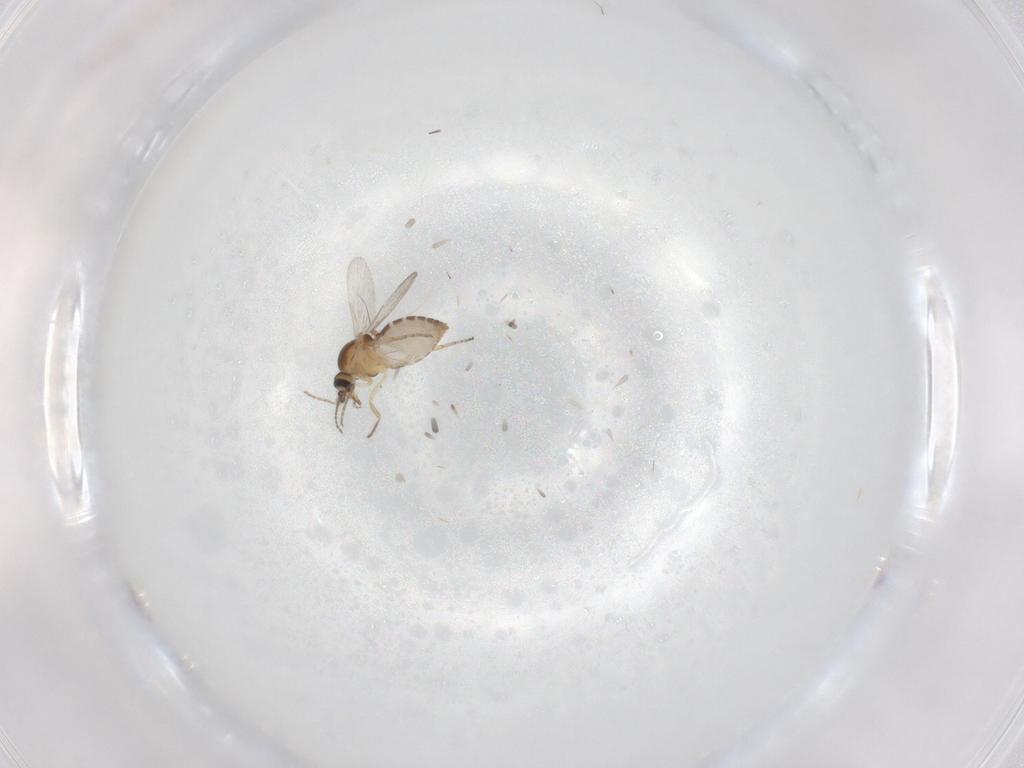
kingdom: Animalia
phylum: Arthropoda
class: Insecta
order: Diptera
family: Ceratopogonidae
